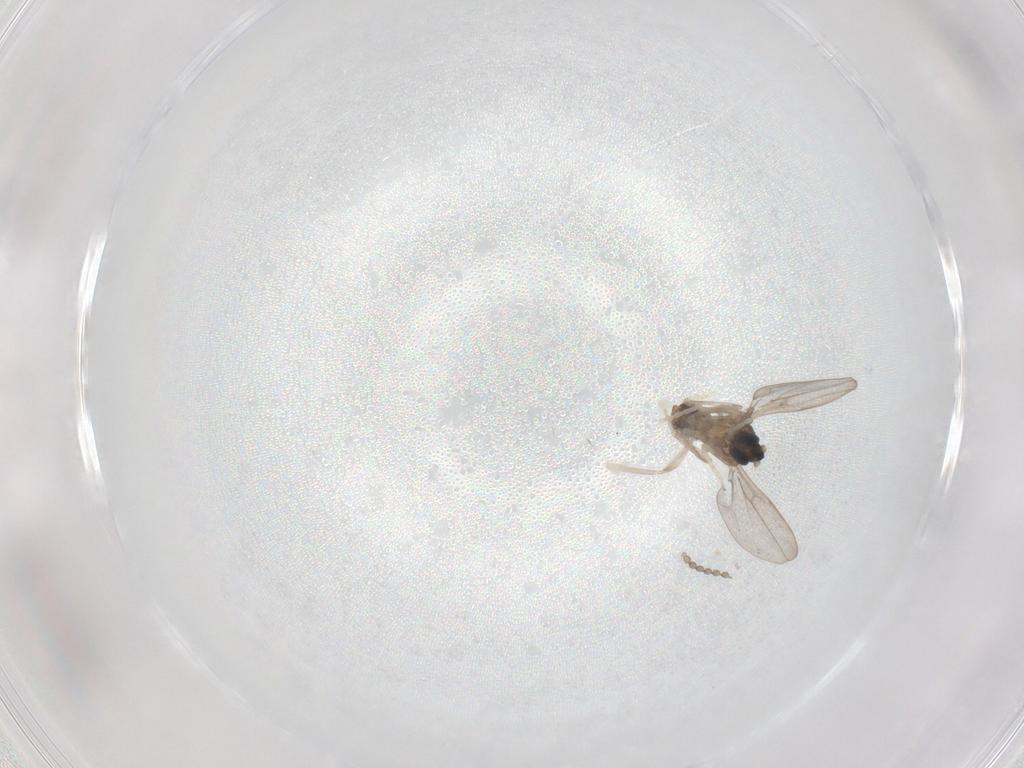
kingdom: Animalia
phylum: Arthropoda
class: Insecta
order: Diptera
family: Cecidomyiidae
